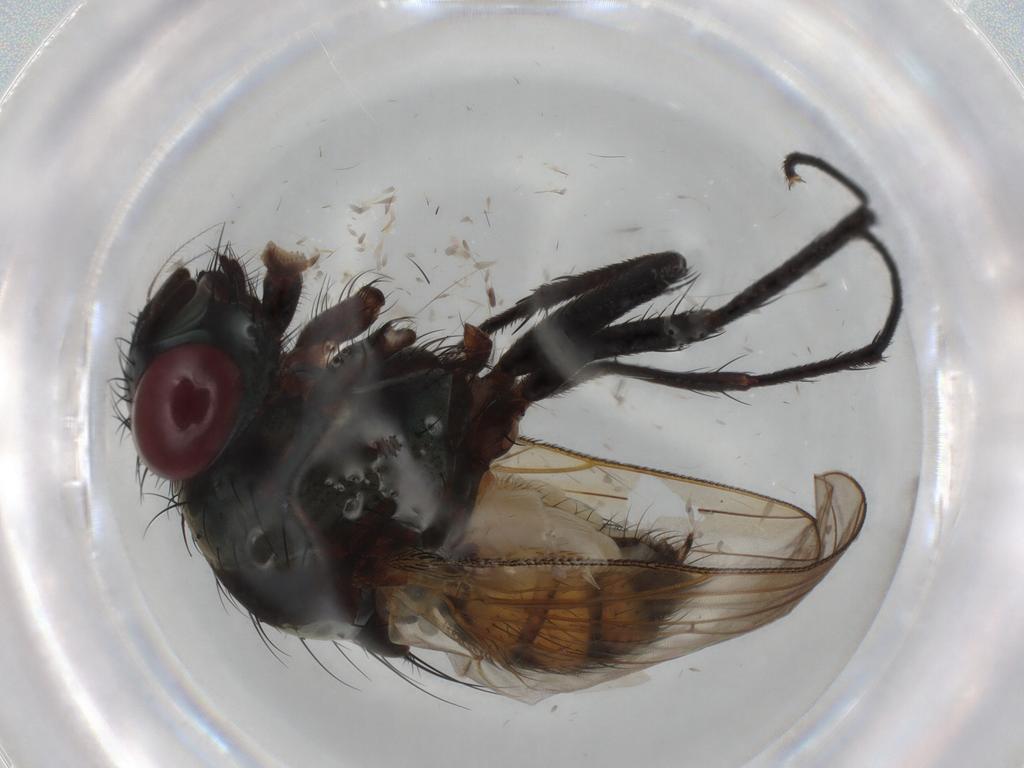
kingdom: Animalia
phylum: Arthropoda
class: Insecta
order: Diptera
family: Anthomyiidae
